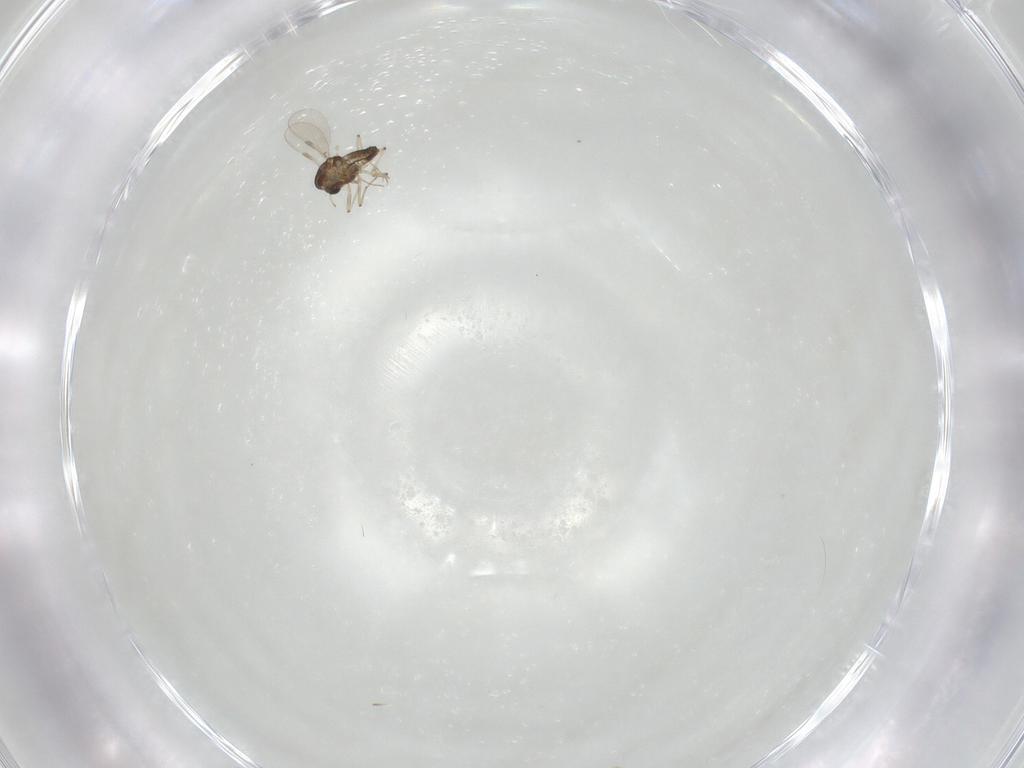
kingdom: Animalia
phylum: Arthropoda
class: Insecta
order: Diptera
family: Chironomidae
